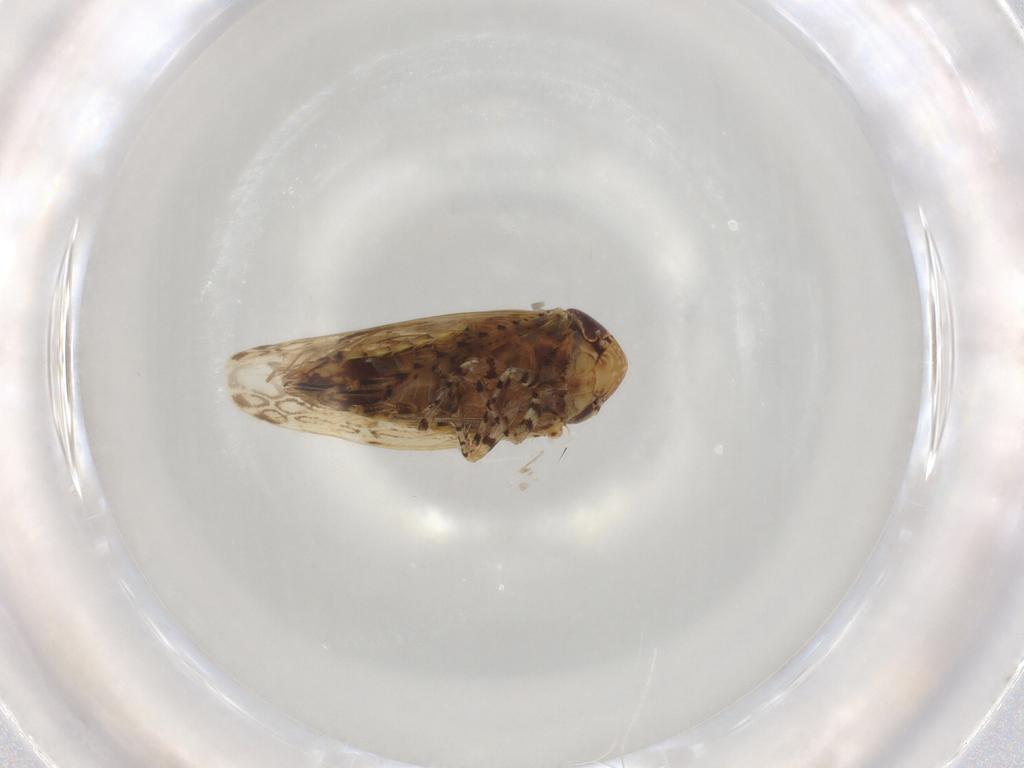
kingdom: Animalia
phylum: Arthropoda
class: Insecta
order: Hemiptera
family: Cicadellidae
